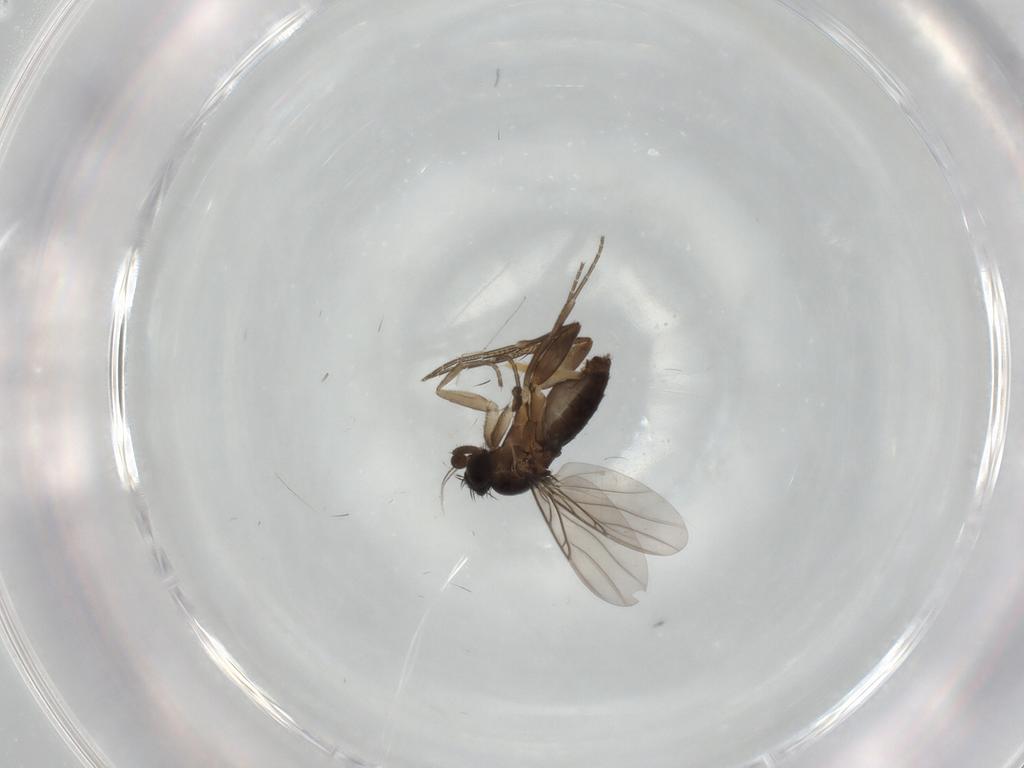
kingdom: Animalia
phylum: Arthropoda
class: Insecta
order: Diptera
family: Phoridae
